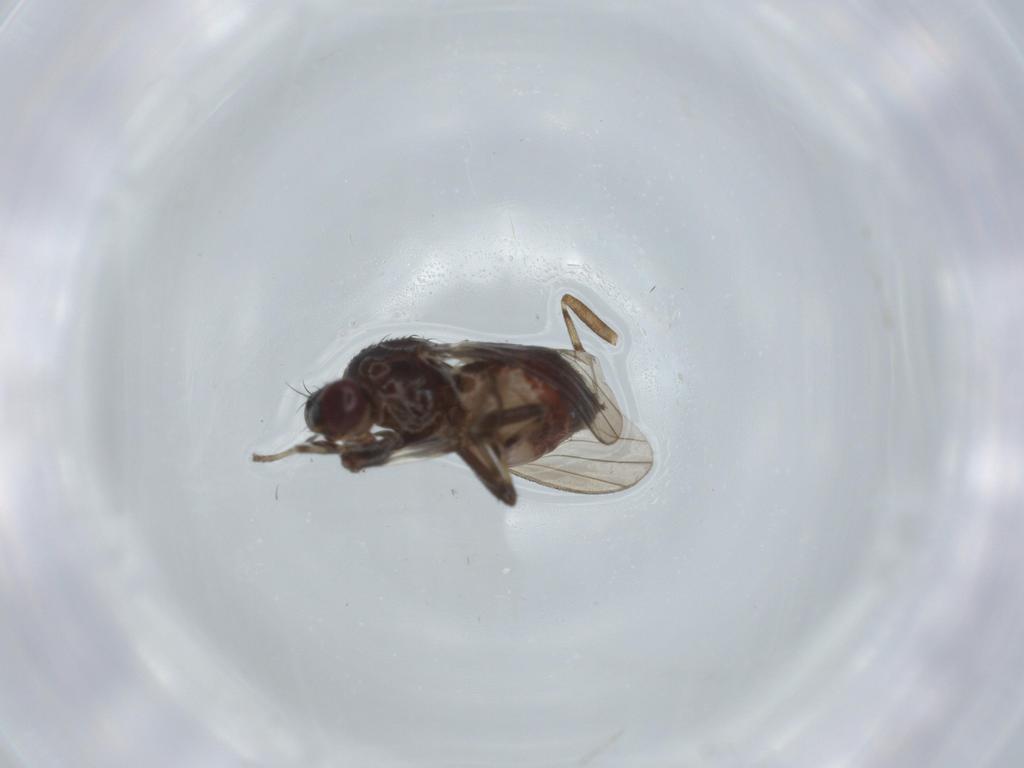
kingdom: Animalia
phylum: Arthropoda
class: Insecta
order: Diptera
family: Heleomyzidae
